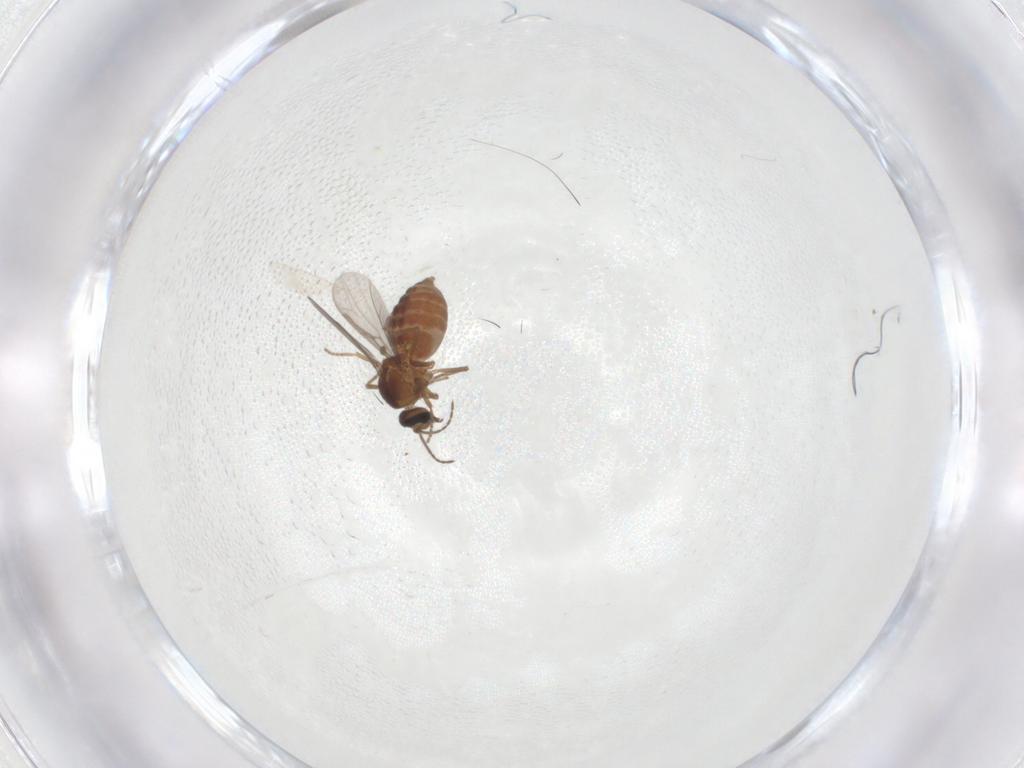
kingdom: Animalia
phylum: Arthropoda
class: Insecta
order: Diptera
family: Ceratopogonidae
